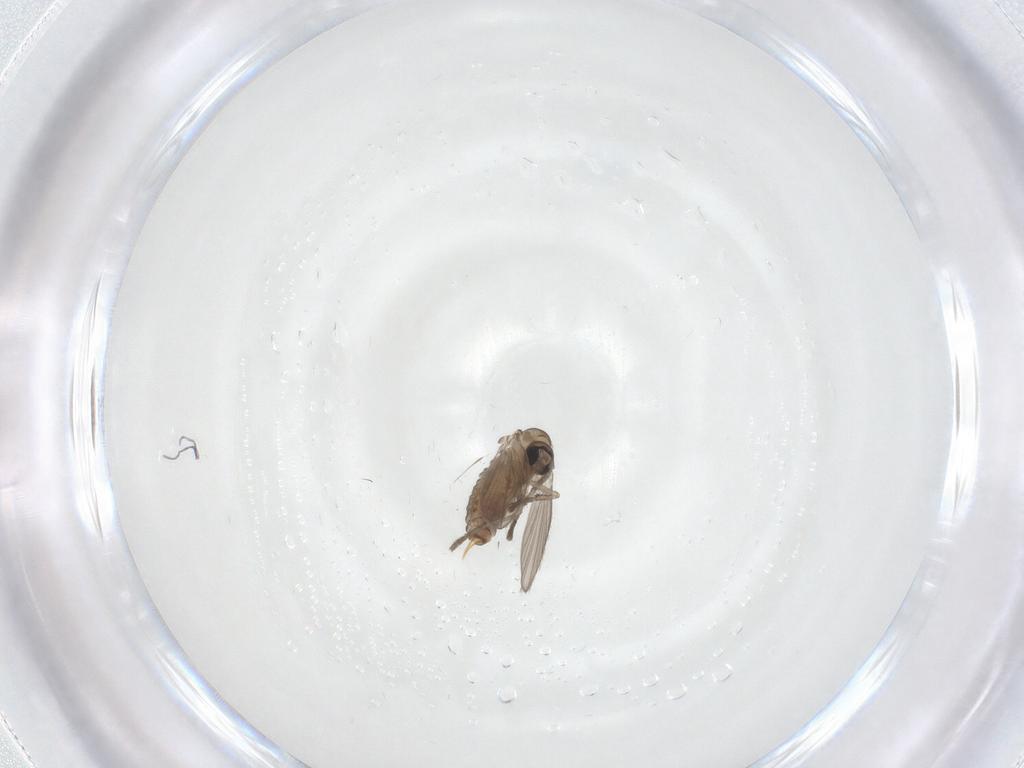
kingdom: Animalia
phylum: Arthropoda
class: Insecta
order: Diptera
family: Psychodidae
